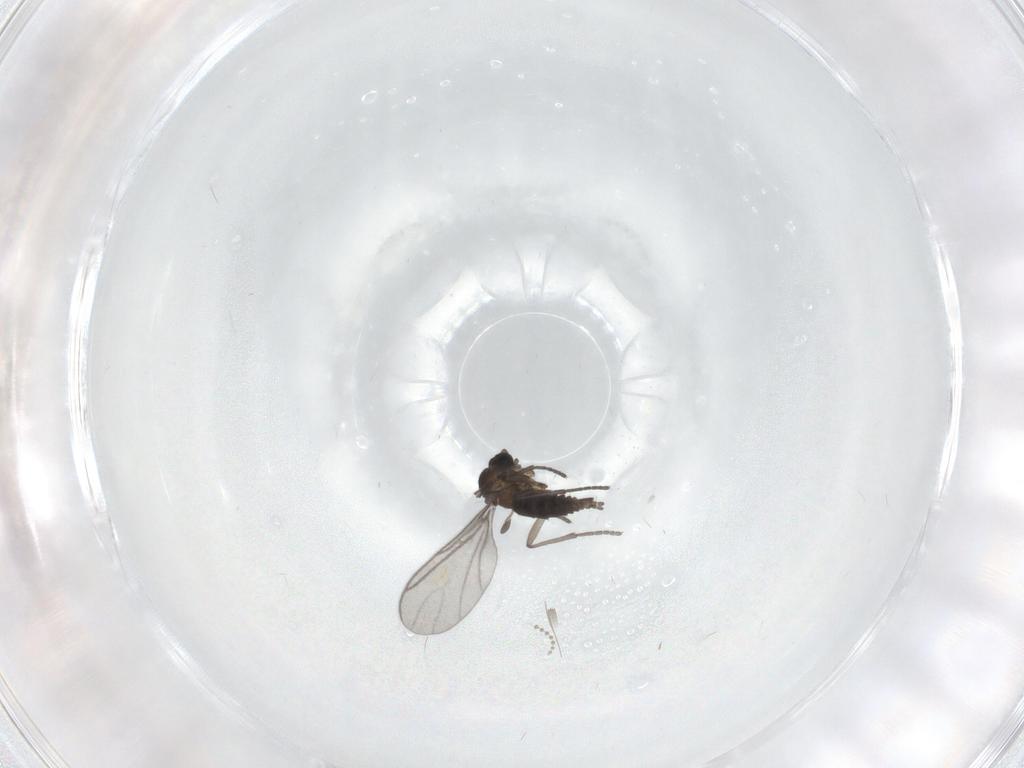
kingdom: Animalia
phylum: Arthropoda
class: Insecta
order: Diptera
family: Psychodidae
